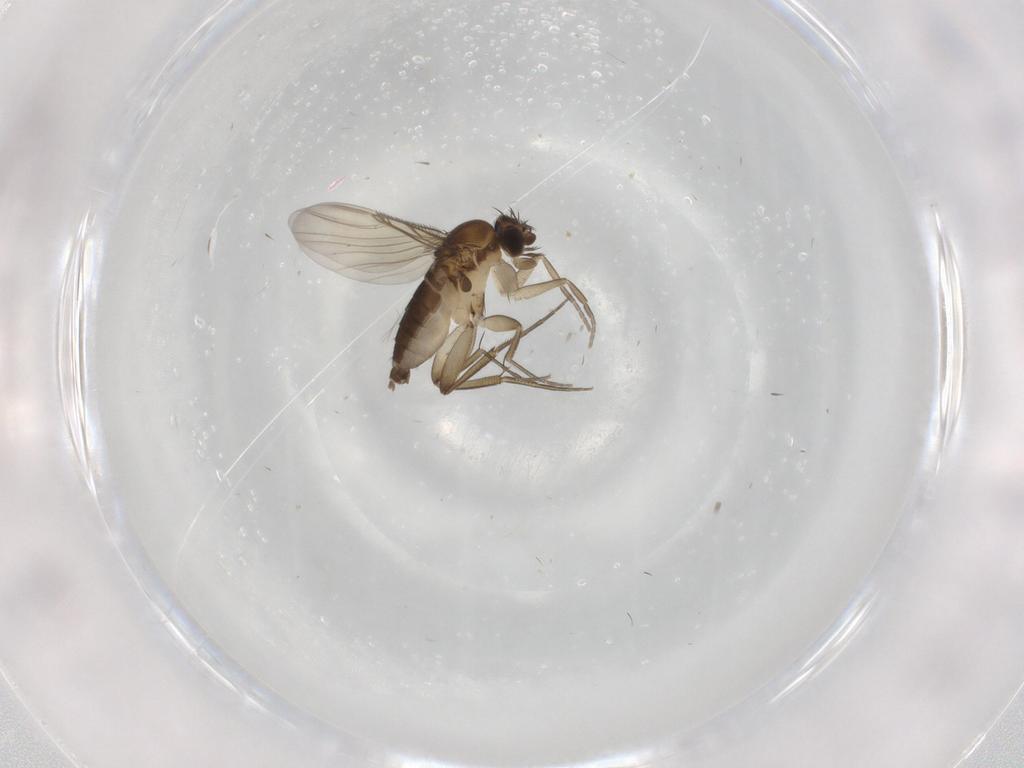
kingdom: Animalia
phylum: Arthropoda
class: Insecta
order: Diptera
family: Phoridae
